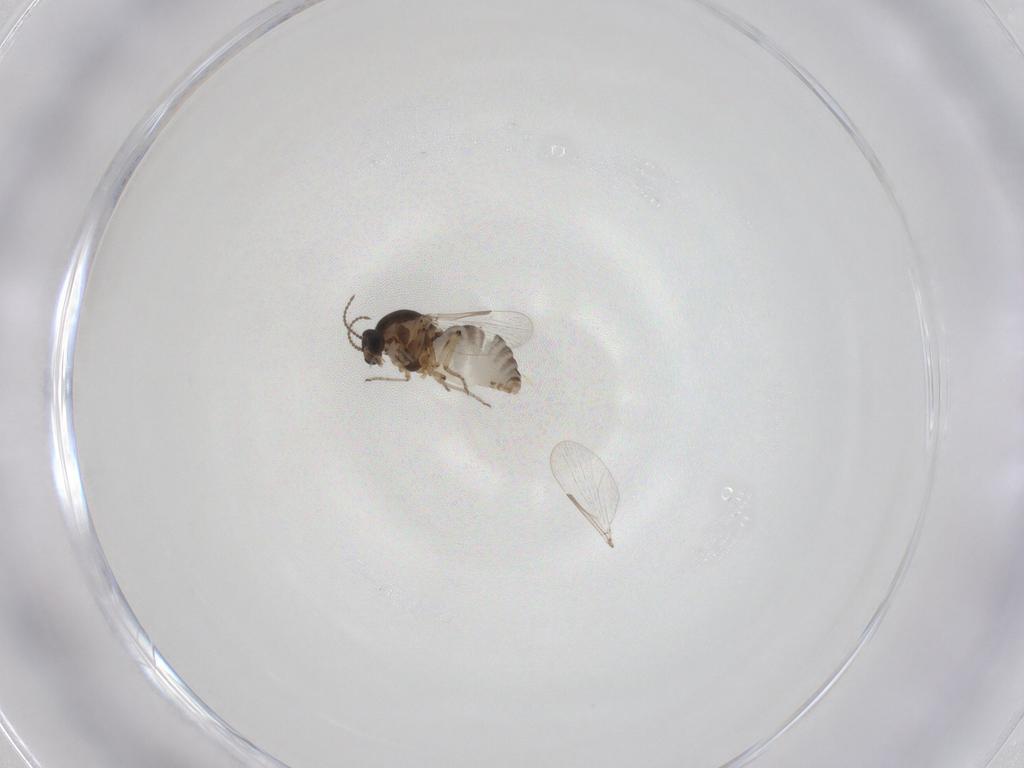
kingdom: Animalia
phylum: Arthropoda
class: Insecta
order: Diptera
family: Ceratopogonidae
